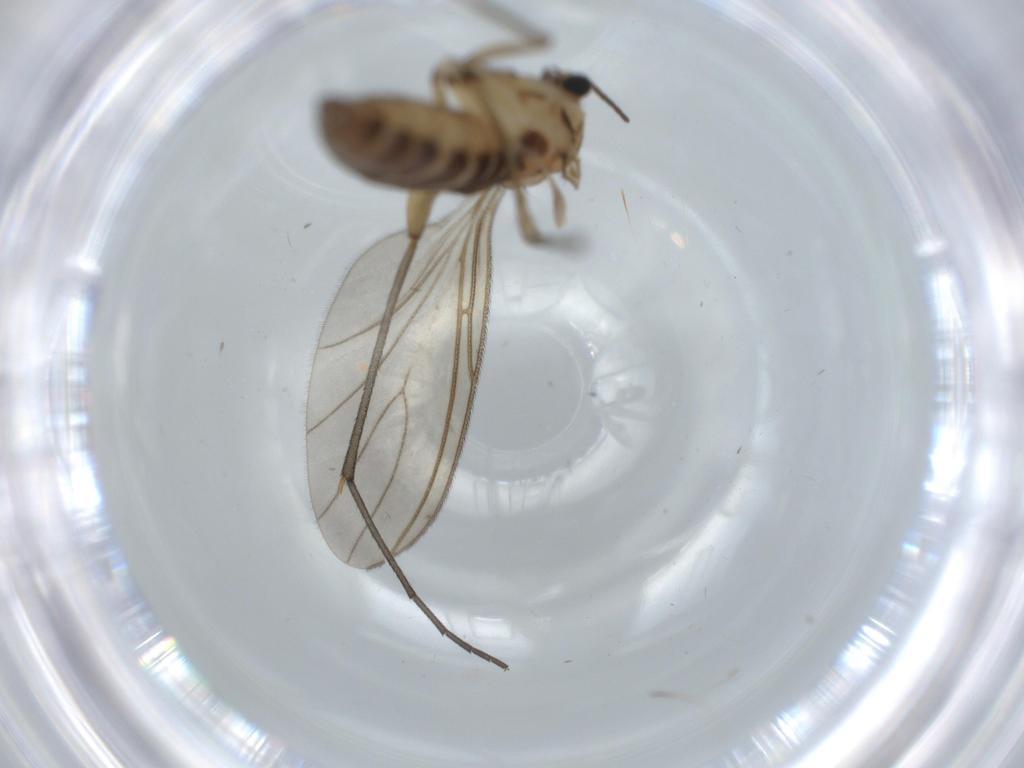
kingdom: Animalia
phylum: Arthropoda
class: Insecta
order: Diptera
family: Sciaridae
